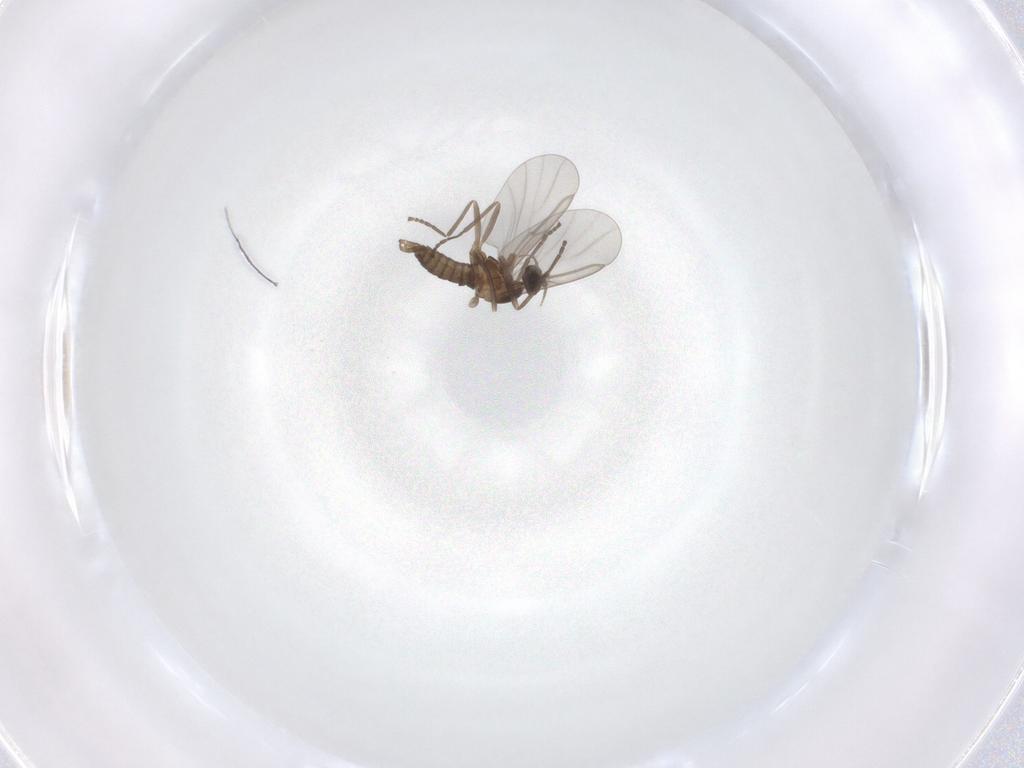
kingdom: Animalia
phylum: Arthropoda
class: Insecta
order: Diptera
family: Cecidomyiidae
